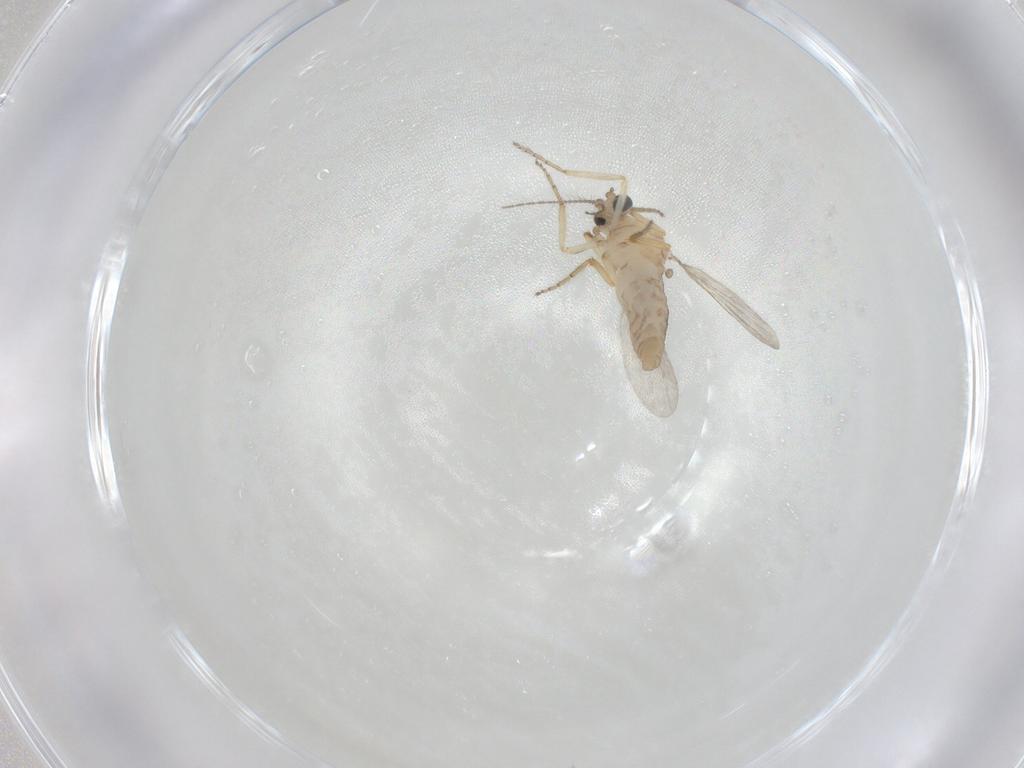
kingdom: Animalia
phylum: Arthropoda
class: Insecta
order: Diptera
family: Ceratopogonidae
